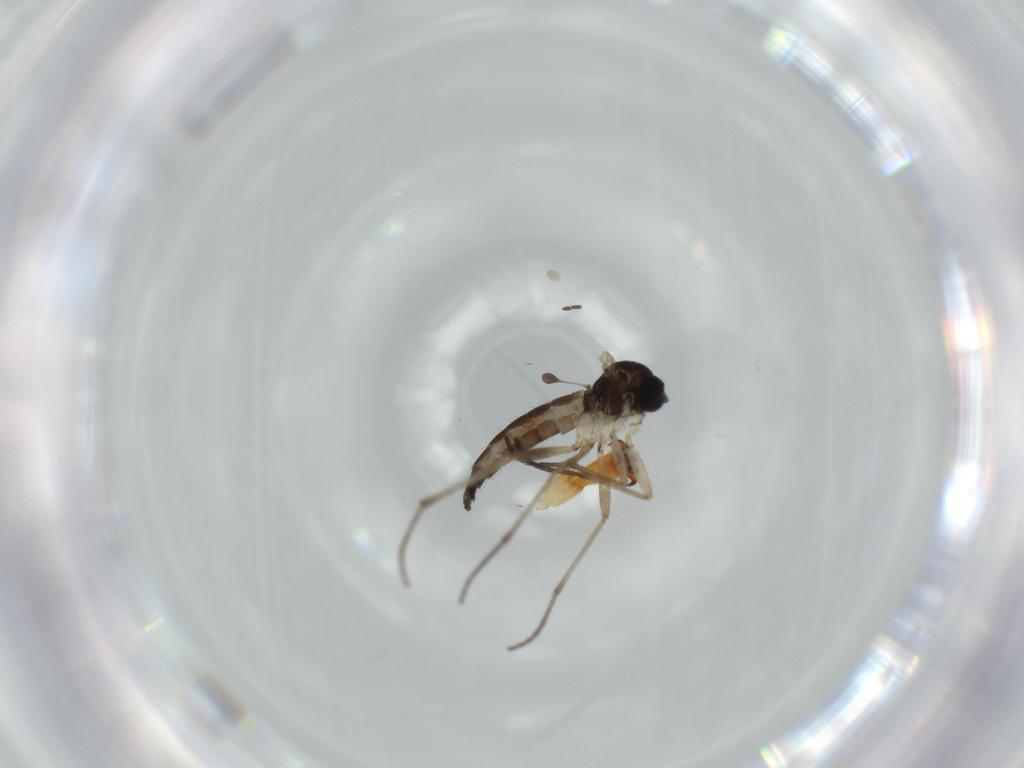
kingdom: Animalia
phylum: Arthropoda
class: Insecta
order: Diptera
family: Sciaridae
